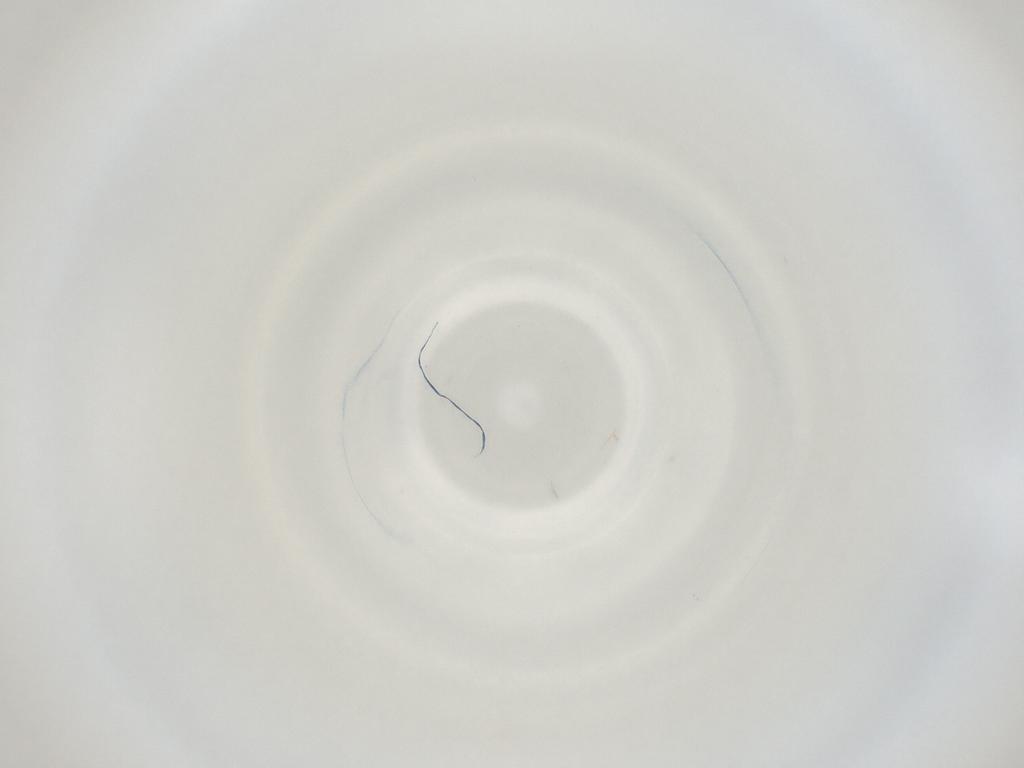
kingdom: Animalia
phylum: Arthropoda
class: Insecta
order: Diptera
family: Cecidomyiidae
